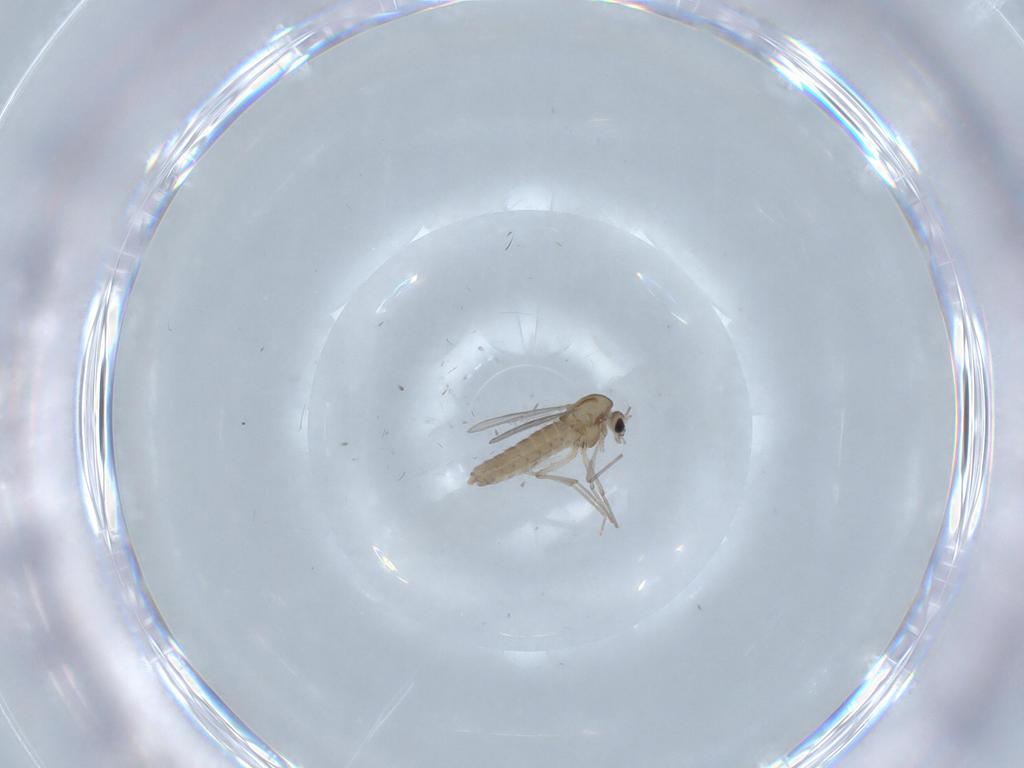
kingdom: Animalia
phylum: Arthropoda
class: Insecta
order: Diptera
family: Chironomidae
